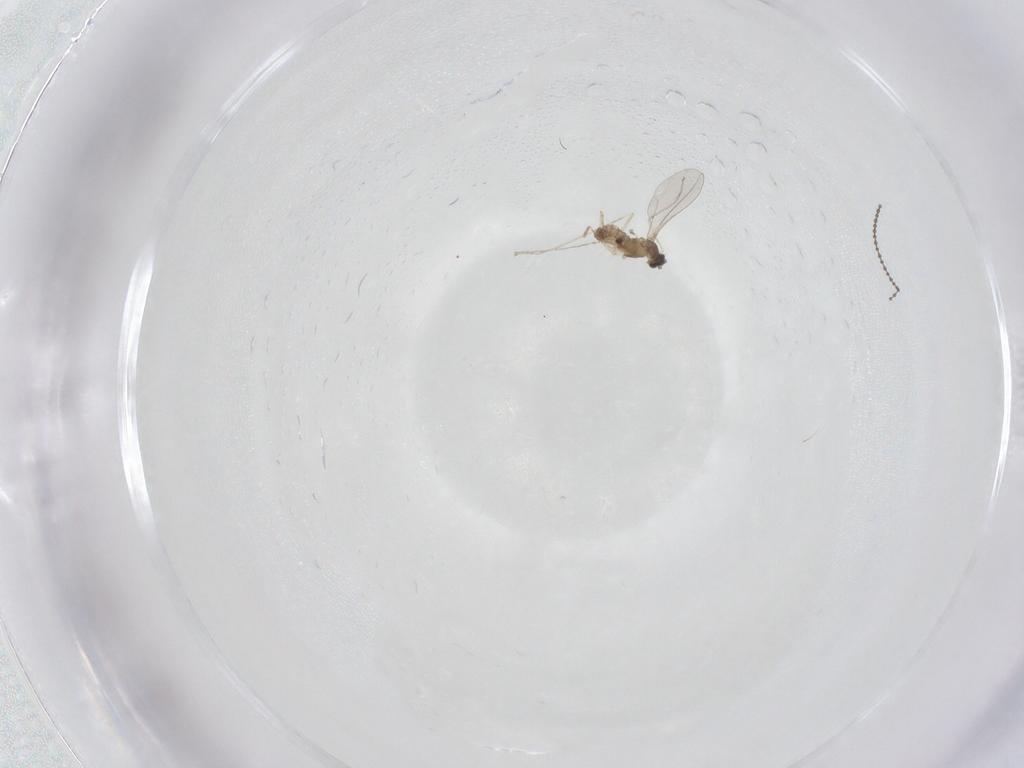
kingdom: Animalia
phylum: Arthropoda
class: Insecta
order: Diptera
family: Cecidomyiidae
